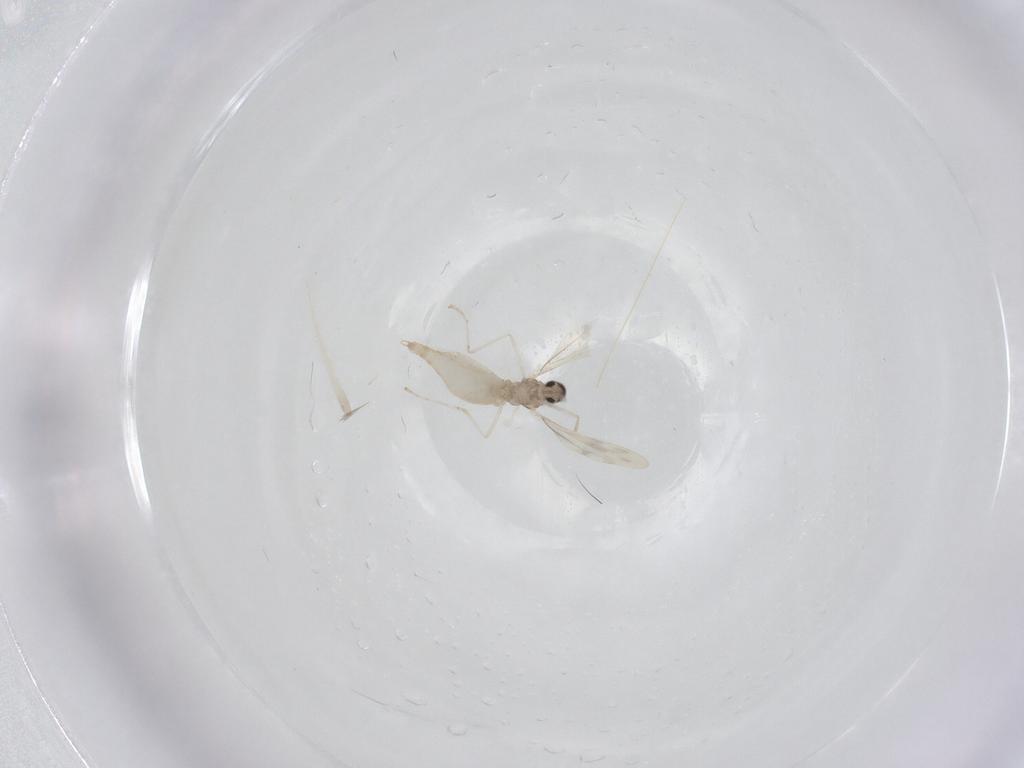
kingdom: Animalia
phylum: Arthropoda
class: Insecta
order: Diptera
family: Cecidomyiidae
